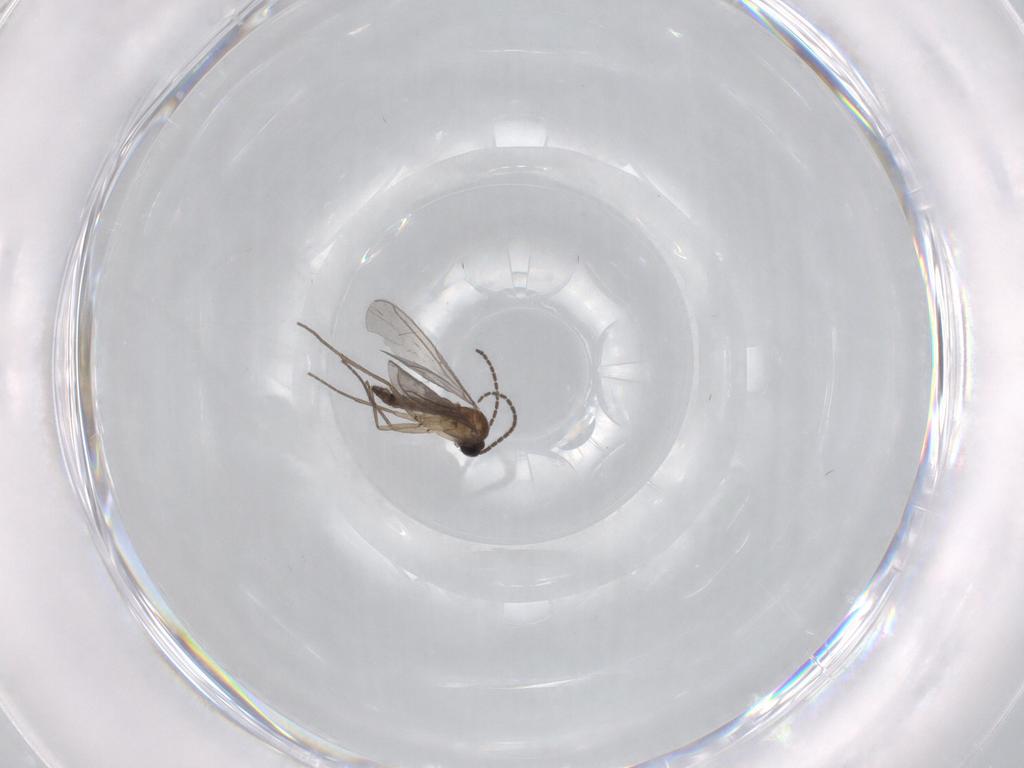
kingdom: Animalia
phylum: Arthropoda
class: Insecta
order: Diptera
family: Sciaridae
